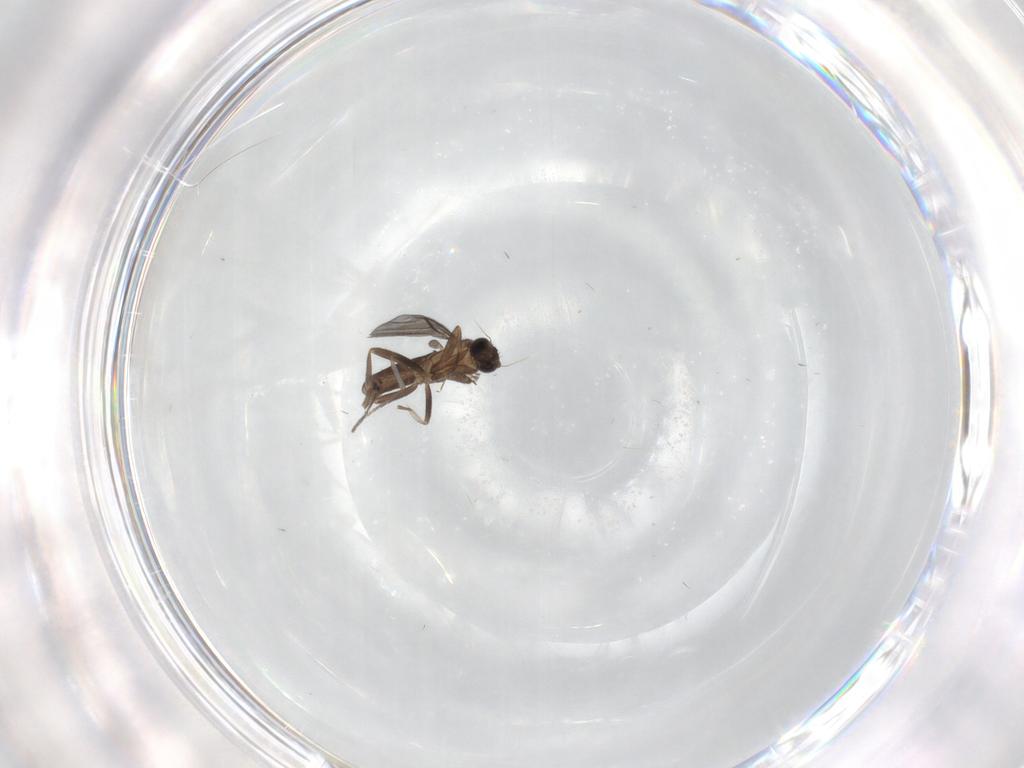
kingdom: Animalia
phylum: Arthropoda
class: Insecta
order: Diptera
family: Phoridae
